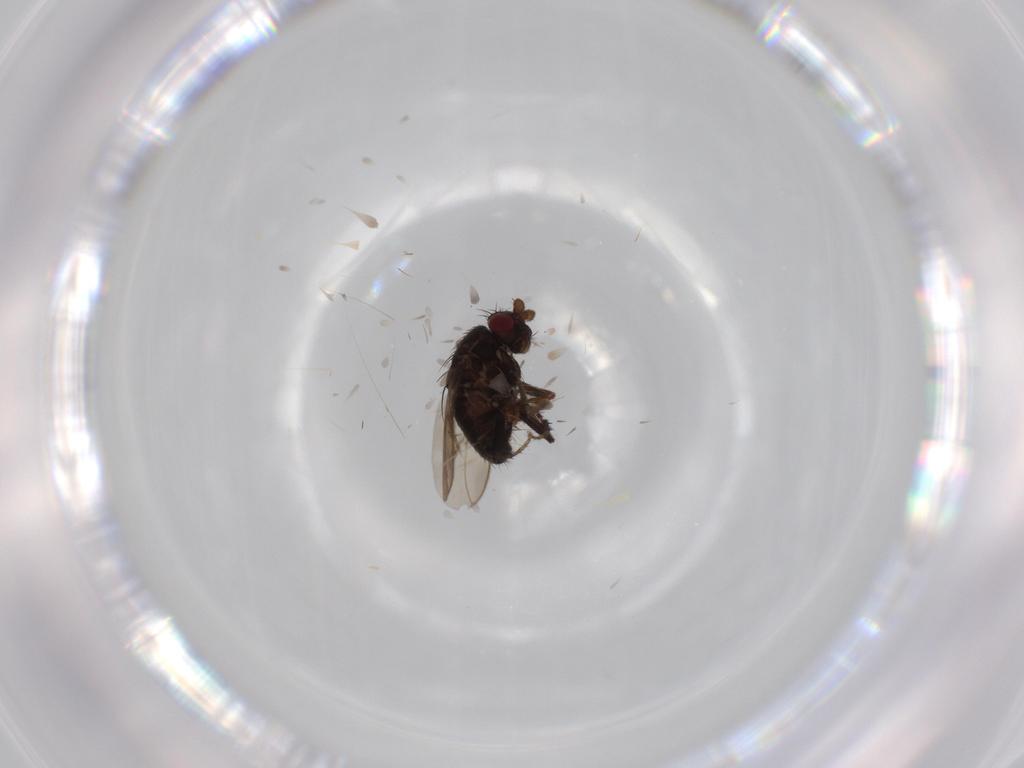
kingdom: Animalia
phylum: Arthropoda
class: Insecta
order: Diptera
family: Sphaeroceridae
